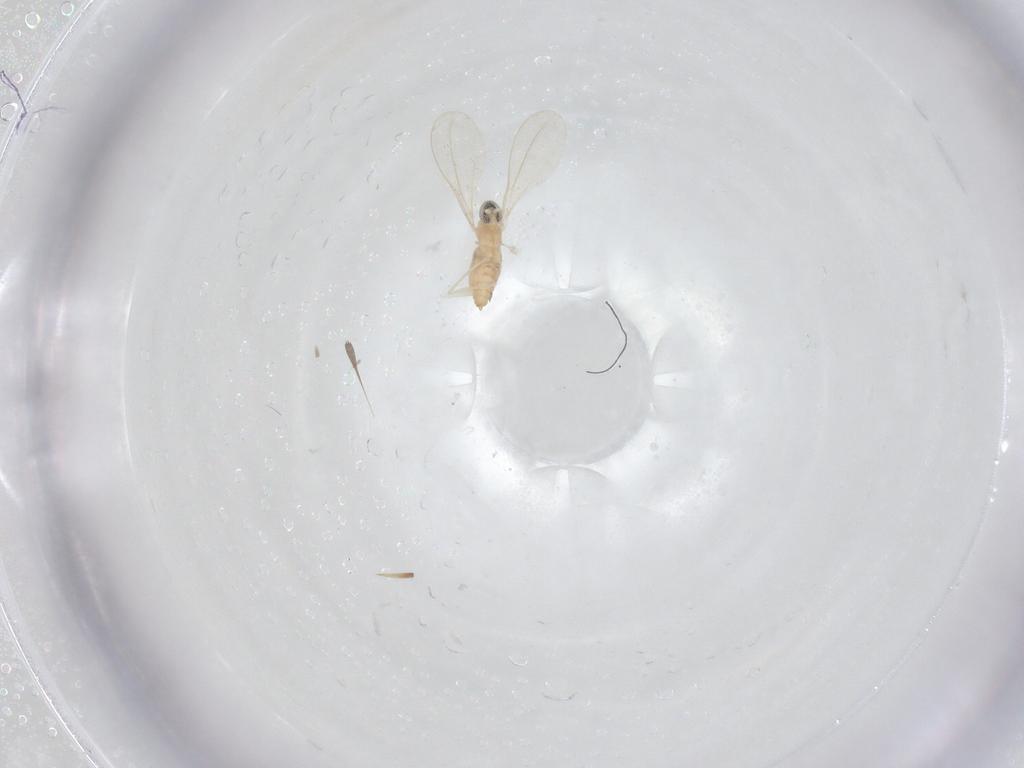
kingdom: Animalia
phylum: Arthropoda
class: Insecta
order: Diptera
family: Cecidomyiidae
